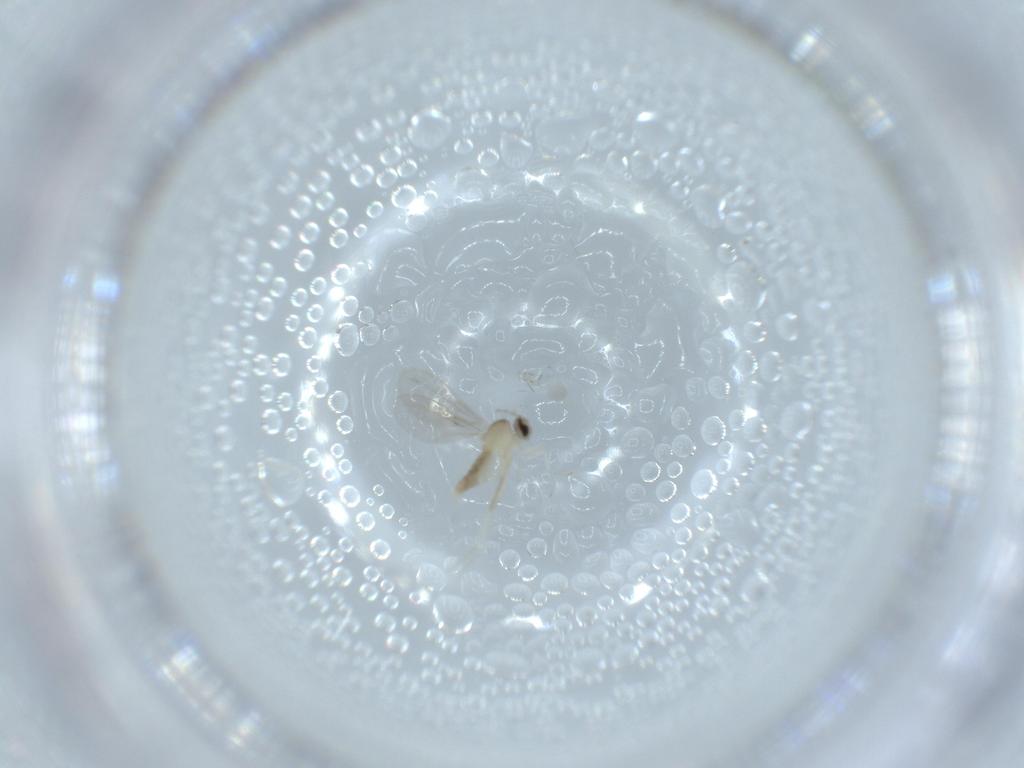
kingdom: Animalia
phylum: Arthropoda
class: Insecta
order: Diptera
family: Cecidomyiidae
